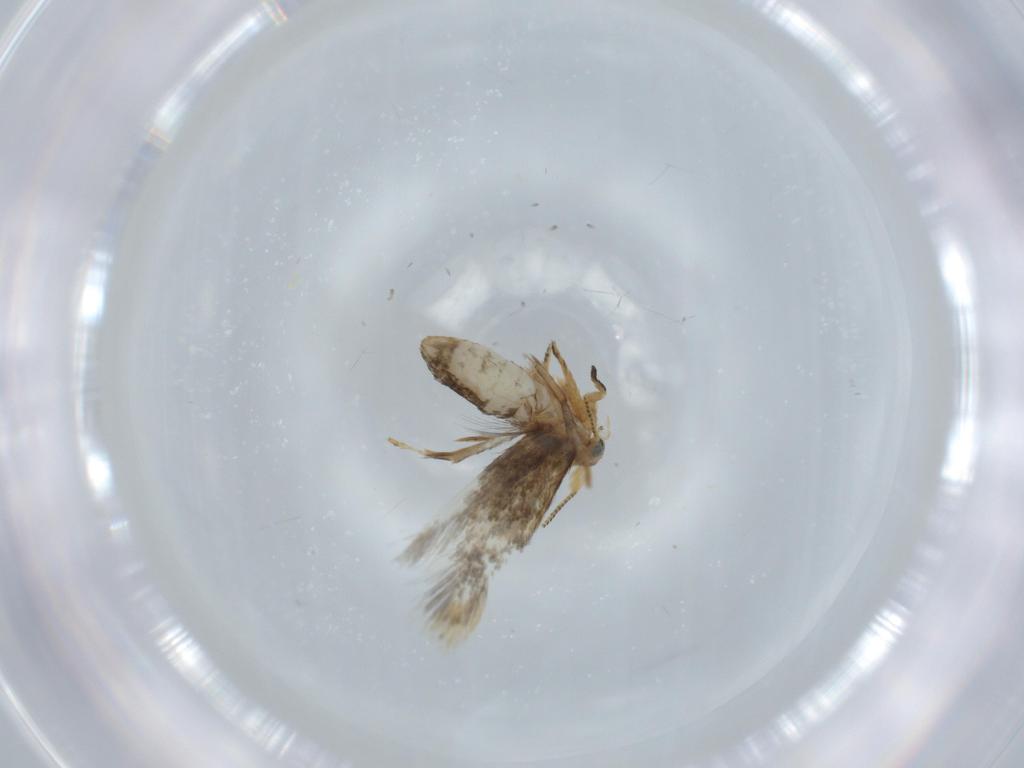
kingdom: Animalia
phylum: Arthropoda
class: Insecta
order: Lepidoptera
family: Nepticulidae
